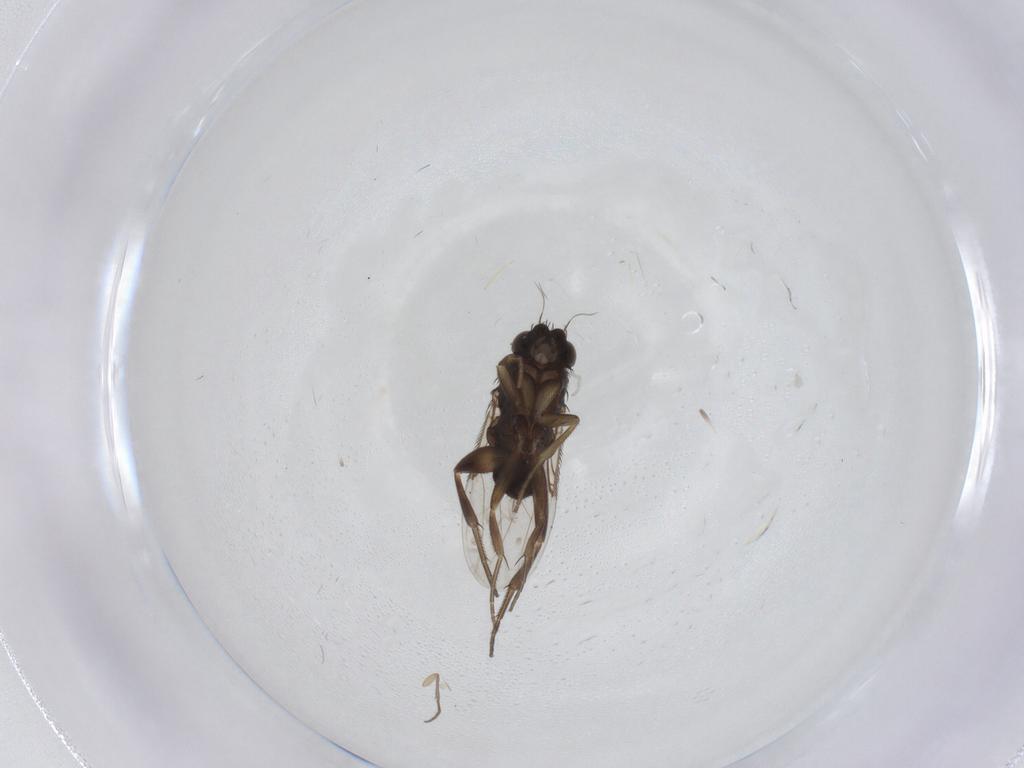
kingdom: Animalia
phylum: Arthropoda
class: Insecta
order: Diptera
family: Phoridae
